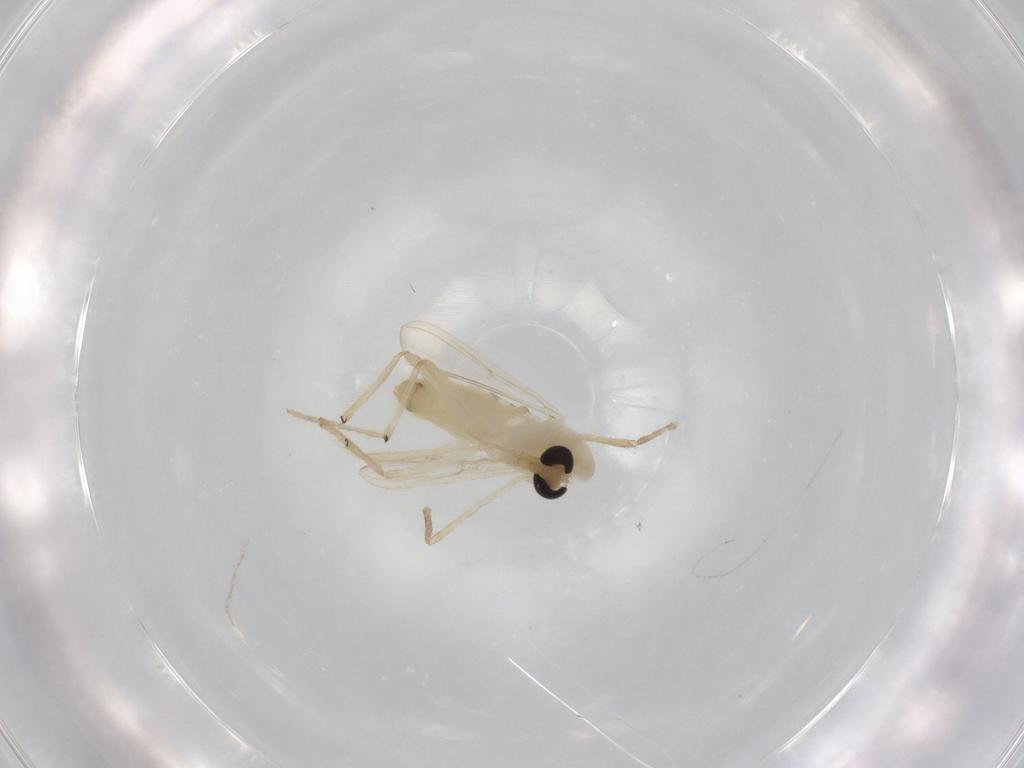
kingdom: Animalia
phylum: Arthropoda
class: Insecta
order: Diptera
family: Chironomidae
